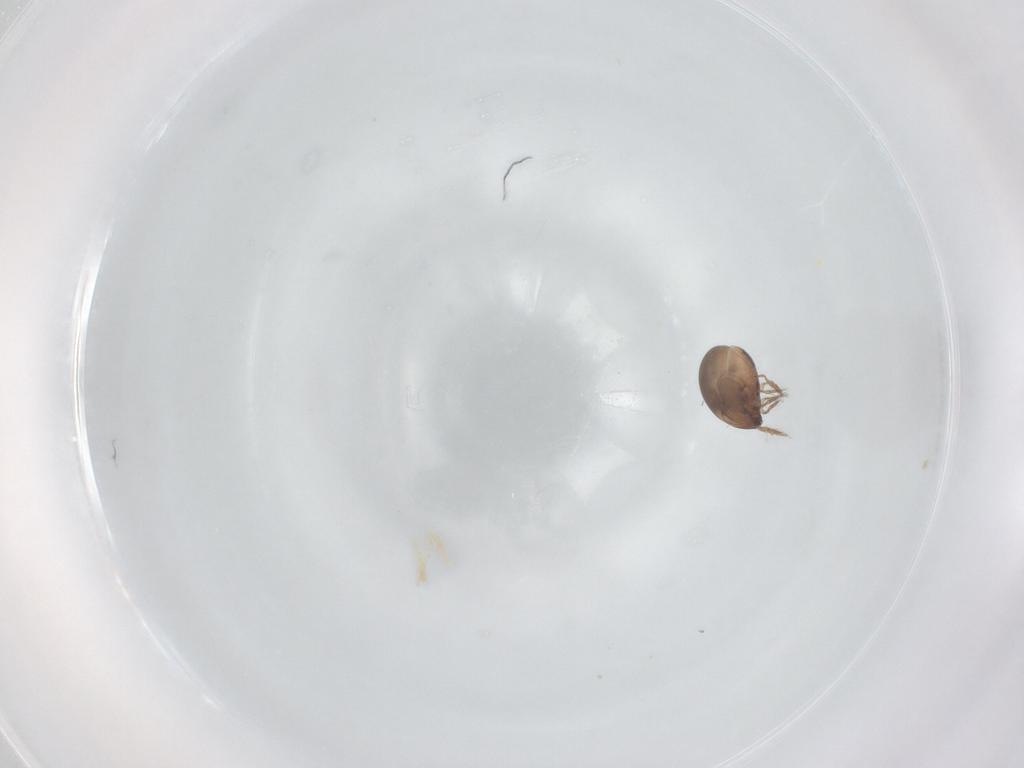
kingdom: Animalia
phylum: Arthropoda
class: Arachnida
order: Sarcoptiformes
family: Ceratozetidae
